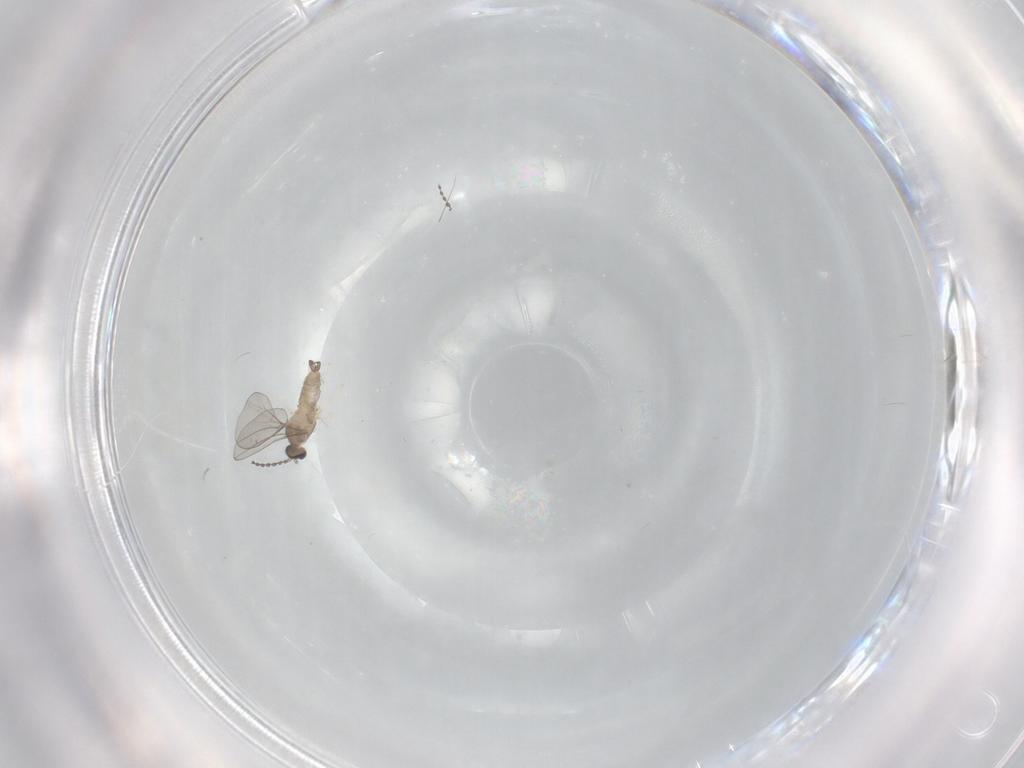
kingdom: Animalia
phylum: Arthropoda
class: Insecta
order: Diptera
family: Cecidomyiidae
